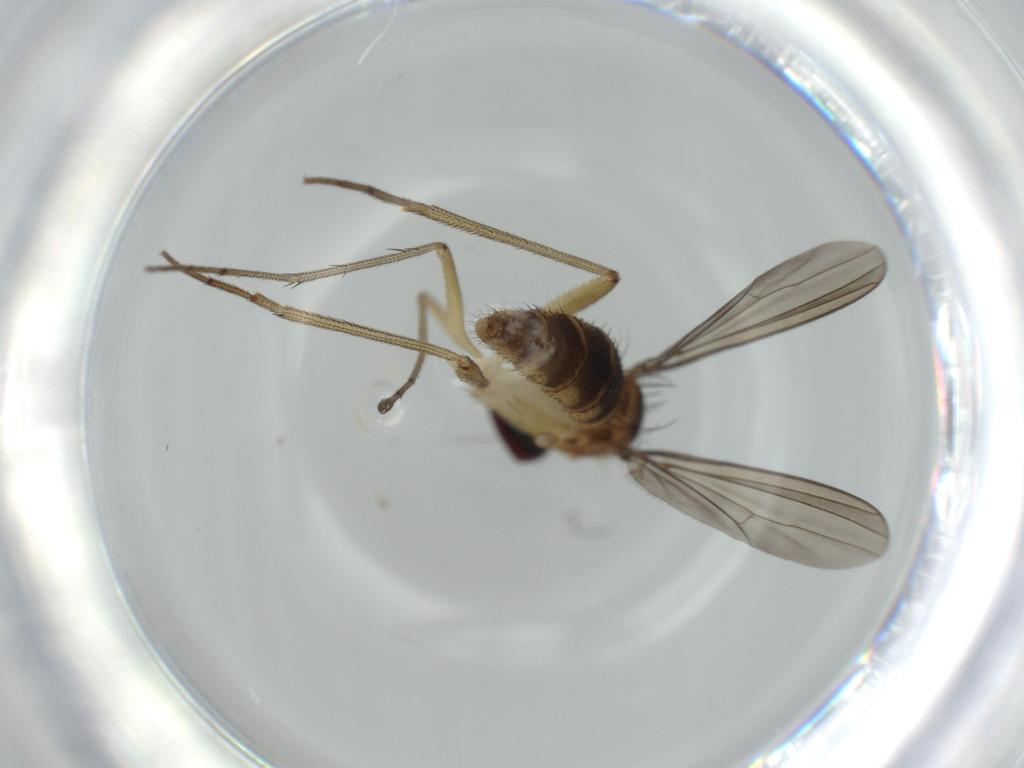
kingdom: Animalia
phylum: Arthropoda
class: Insecta
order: Diptera
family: Dolichopodidae
